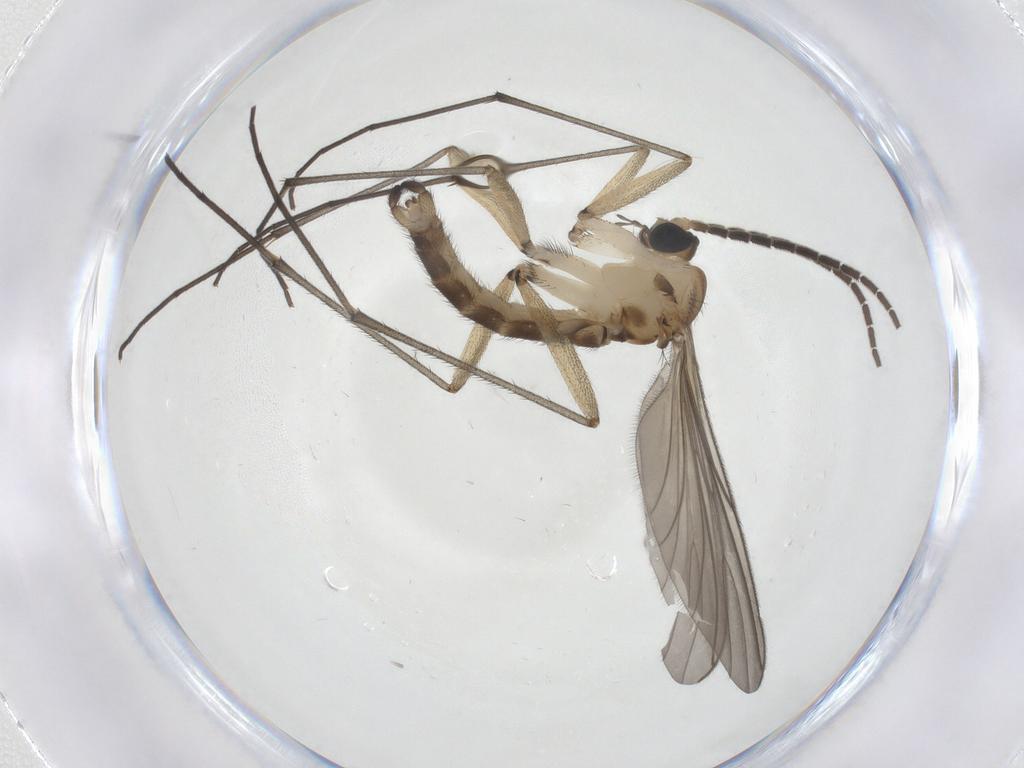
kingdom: Animalia
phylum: Arthropoda
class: Insecta
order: Diptera
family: Sciaridae
